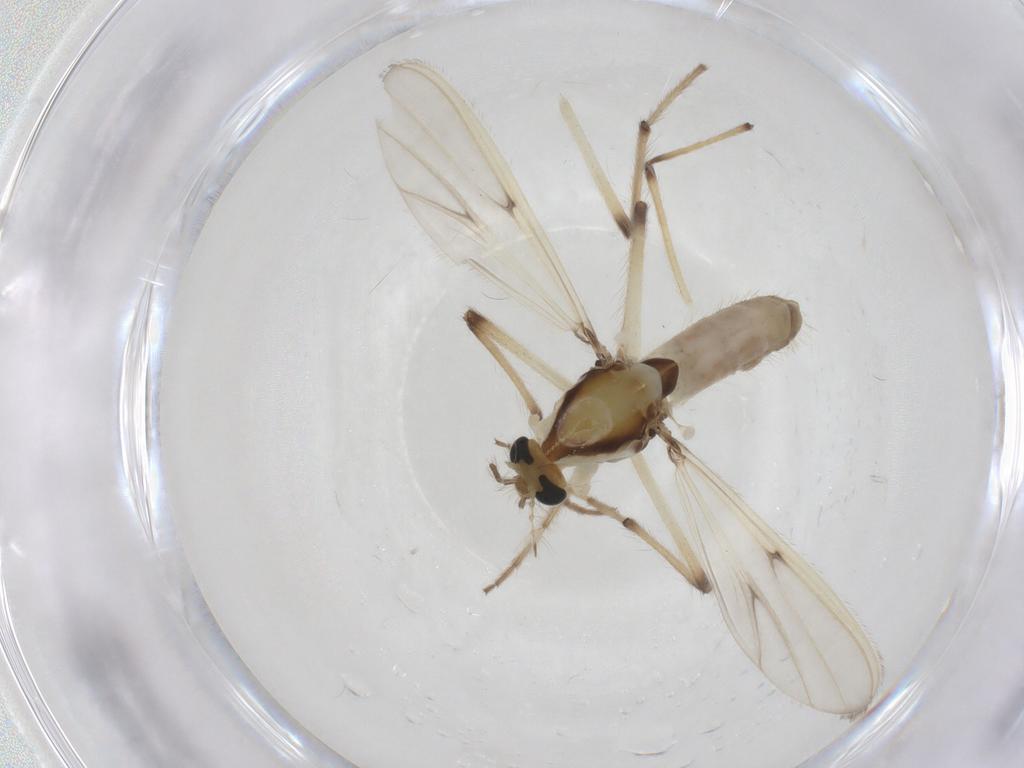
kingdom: Animalia
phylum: Arthropoda
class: Insecta
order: Diptera
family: Chironomidae
